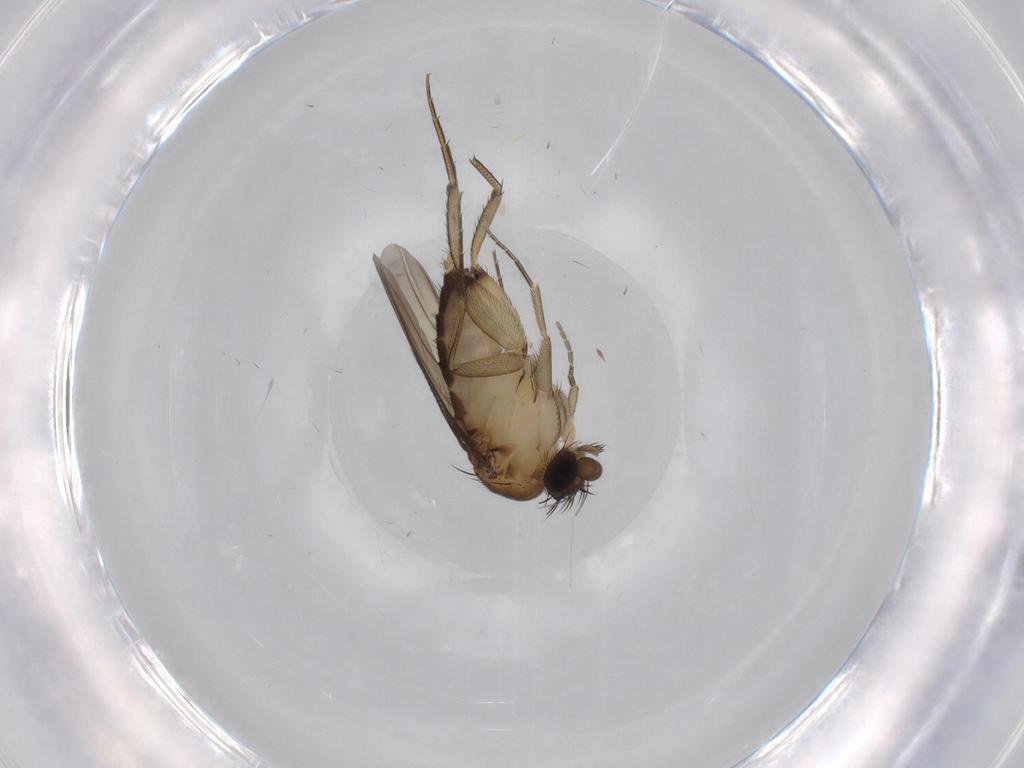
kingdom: Animalia
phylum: Arthropoda
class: Insecta
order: Diptera
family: Phoridae
